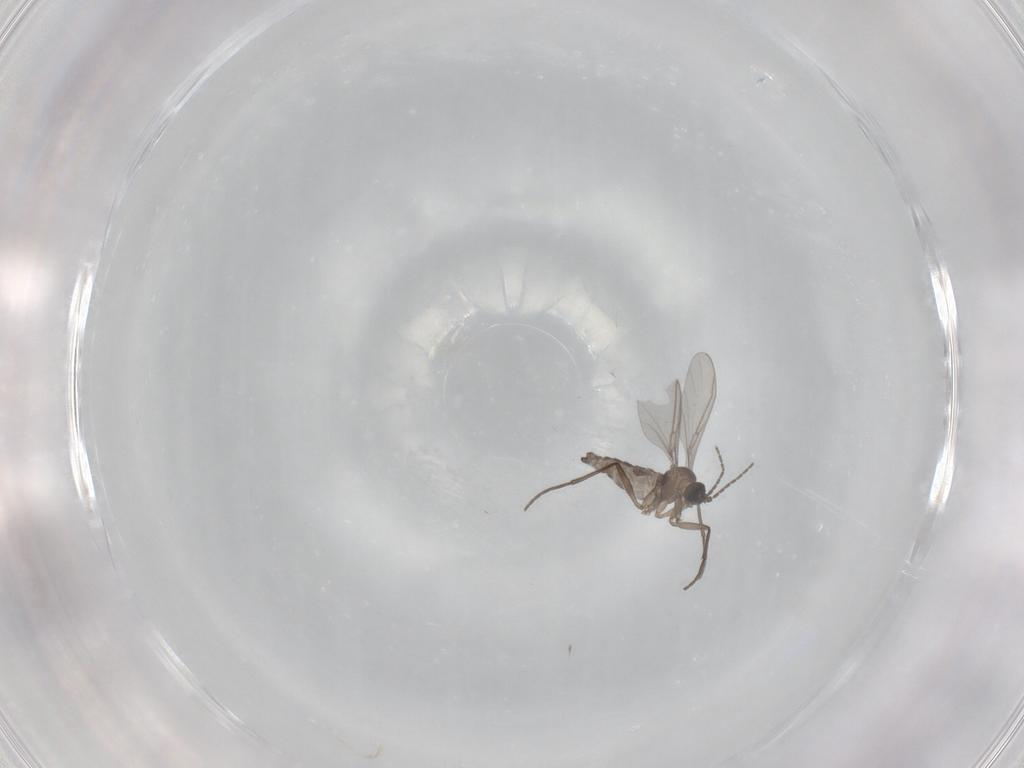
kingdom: Animalia
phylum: Arthropoda
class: Insecta
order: Diptera
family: Sciaridae
